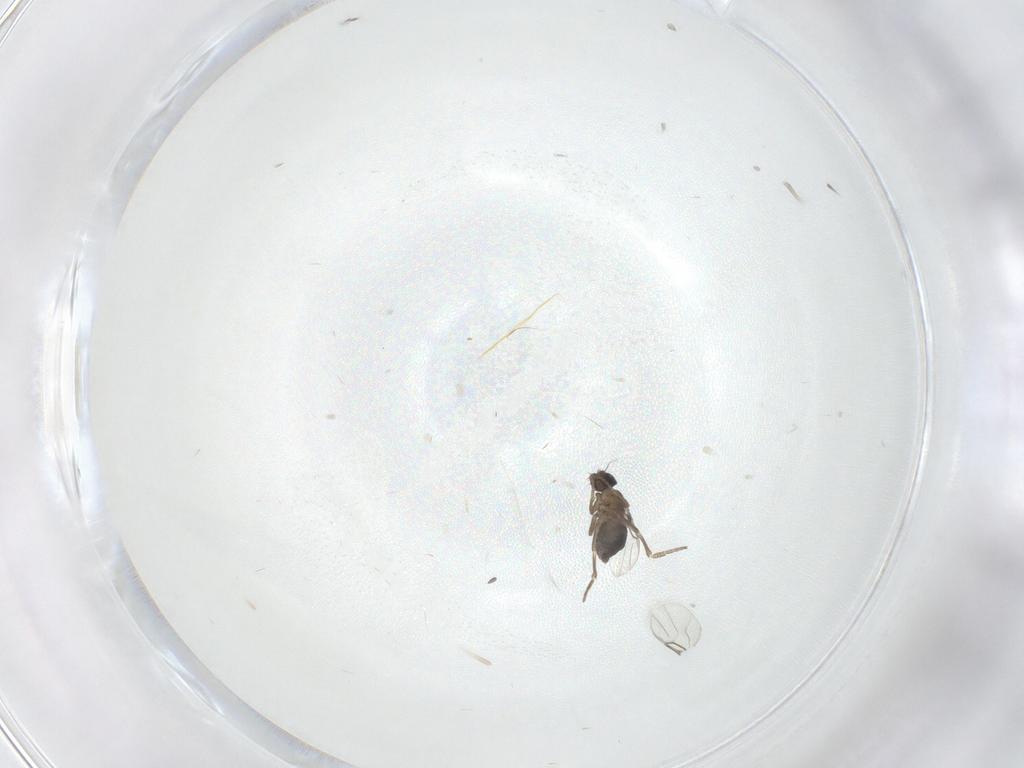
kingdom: Animalia
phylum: Arthropoda
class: Insecta
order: Diptera
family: Phoridae
